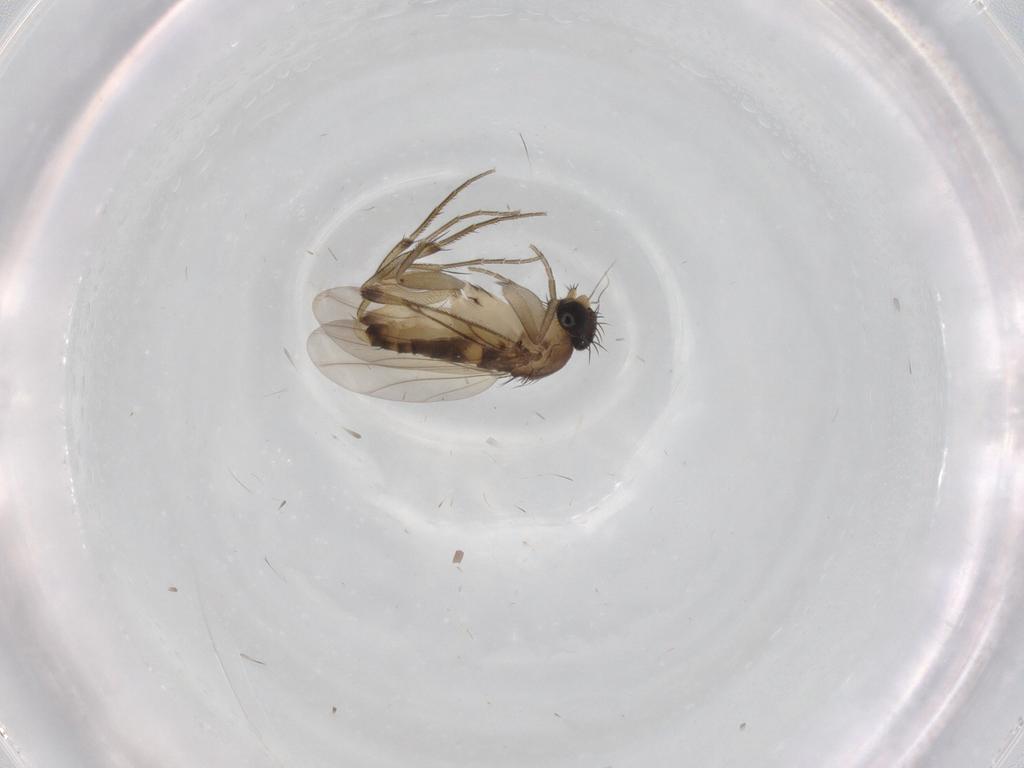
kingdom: Animalia
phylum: Arthropoda
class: Insecta
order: Diptera
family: Phoridae
